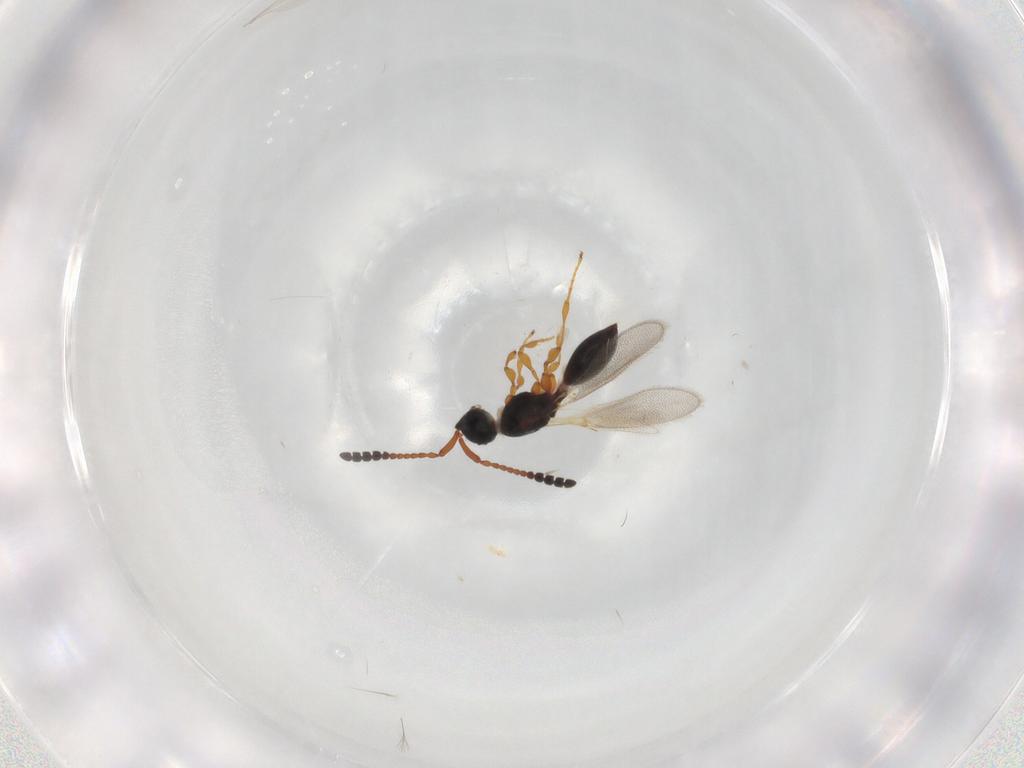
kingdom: Animalia
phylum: Arthropoda
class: Insecta
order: Hymenoptera
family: Diapriidae
